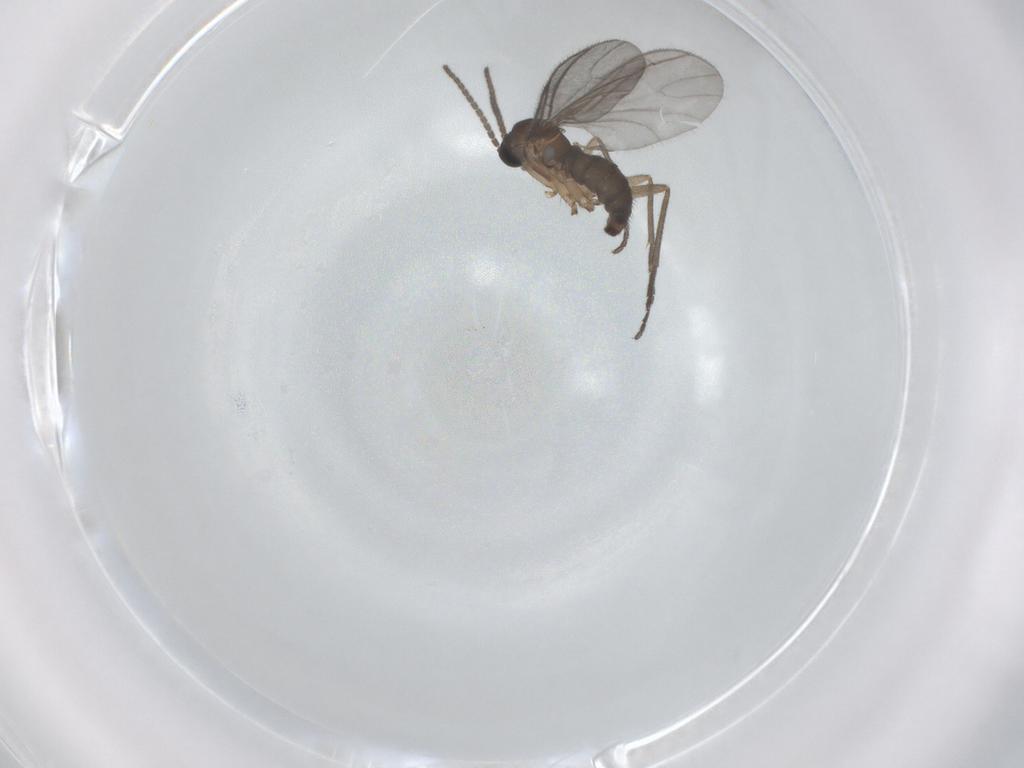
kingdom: Animalia
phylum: Arthropoda
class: Insecta
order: Diptera
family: Sciaridae
